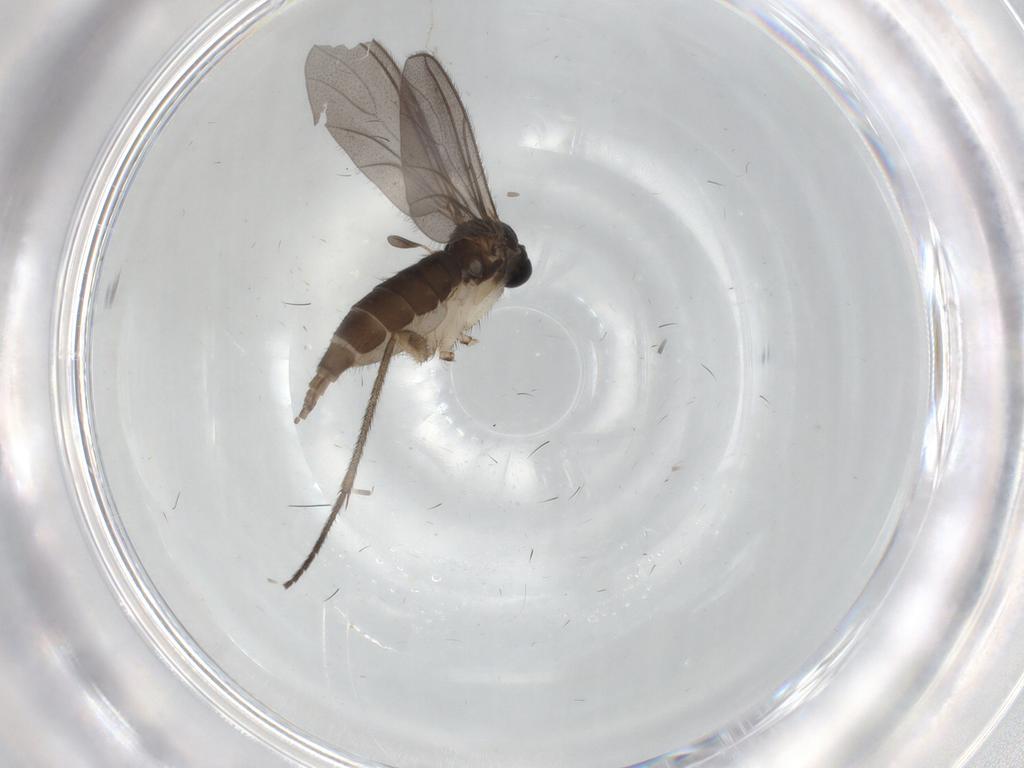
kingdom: Animalia
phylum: Arthropoda
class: Insecta
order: Diptera
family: Sciaridae
